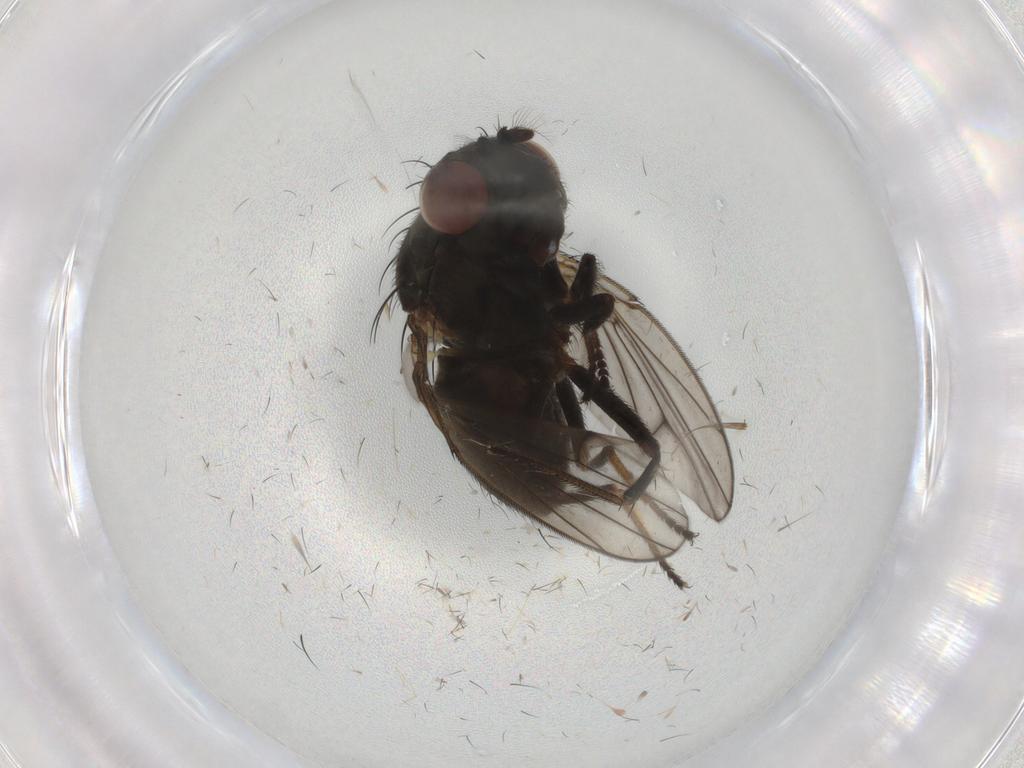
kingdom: Animalia
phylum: Arthropoda
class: Insecta
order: Diptera
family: Ephydridae
